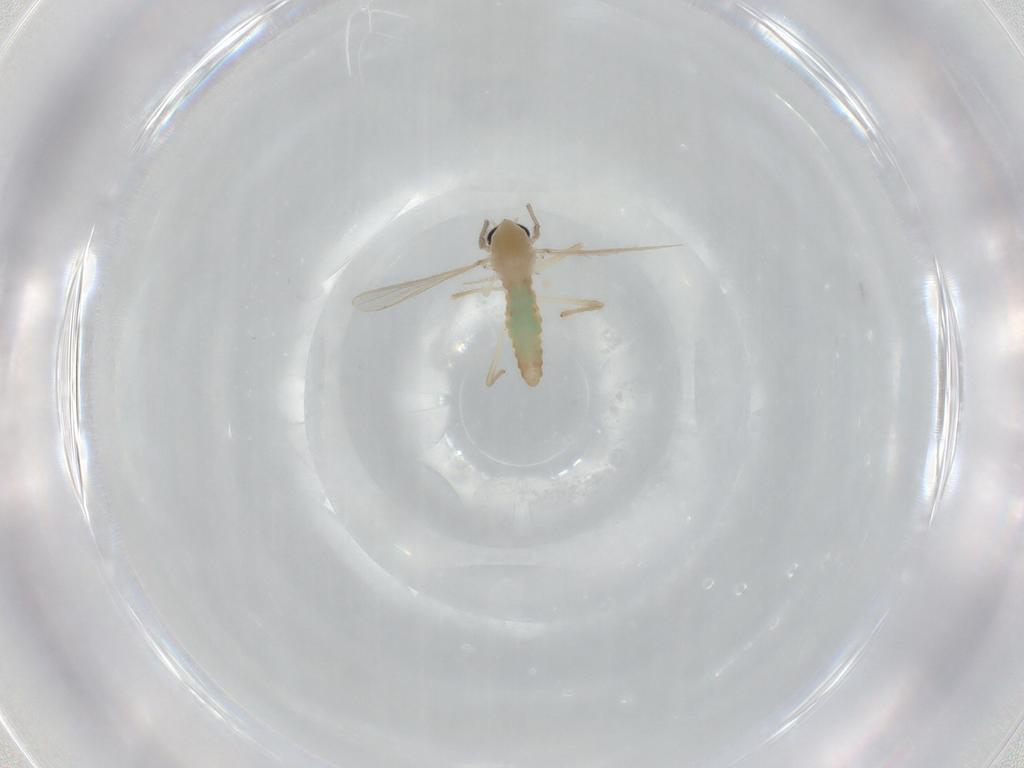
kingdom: Animalia
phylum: Arthropoda
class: Insecta
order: Diptera
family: Chironomidae
